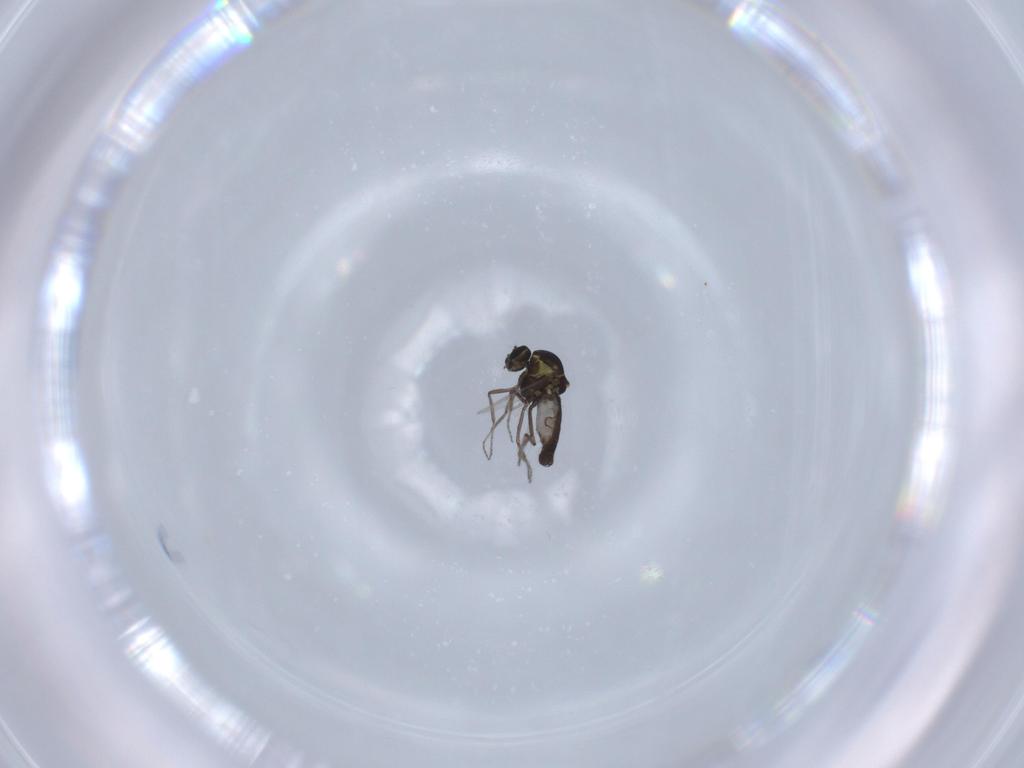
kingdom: Animalia
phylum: Arthropoda
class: Insecta
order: Diptera
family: Ceratopogonidae
